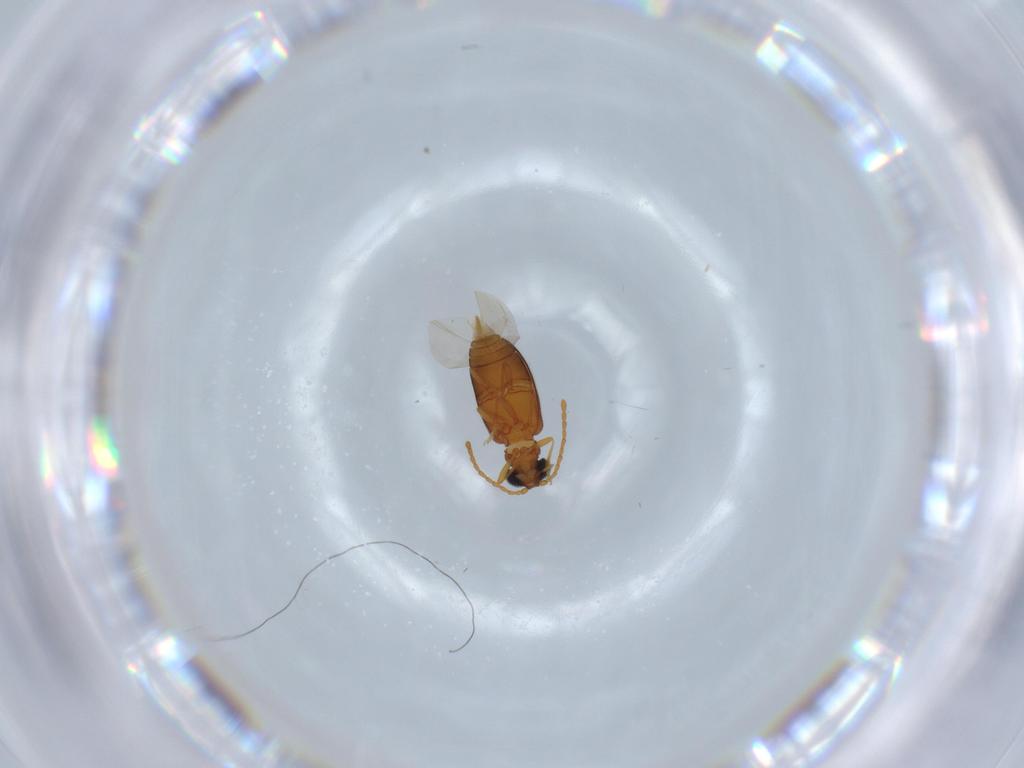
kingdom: Animalia
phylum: Arthropoda
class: Insecta
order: Coleoptera
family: Aderidae
